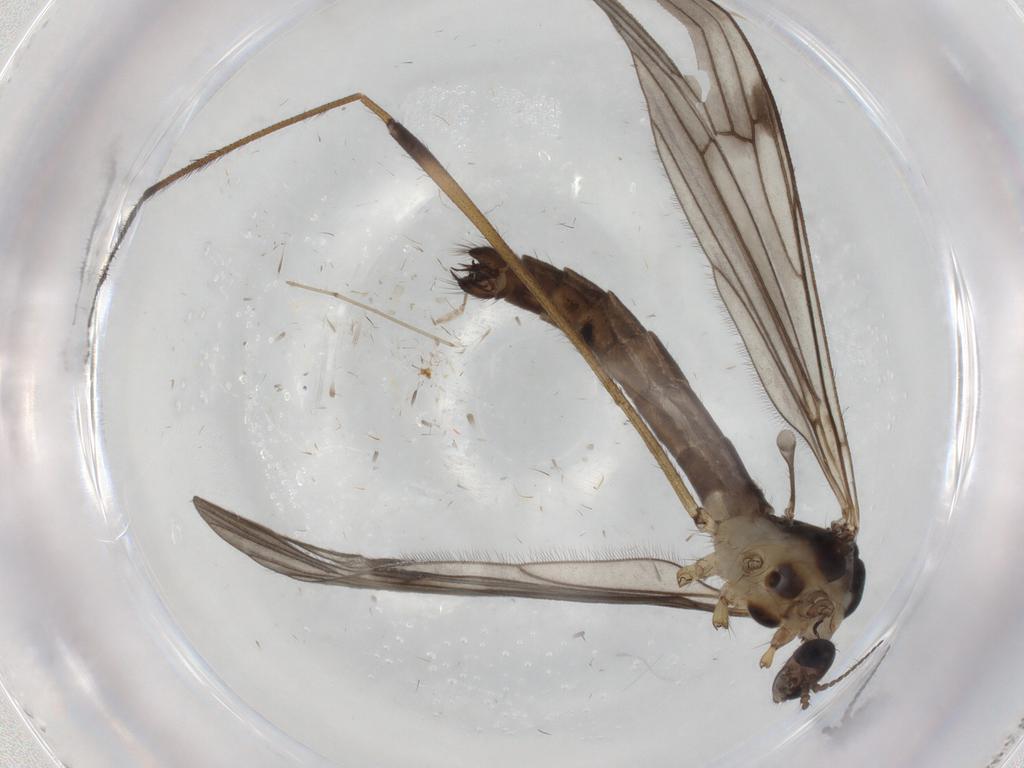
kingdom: Animalia
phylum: Arthropoda
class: Insecta
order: Diptera
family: Limoniidae
